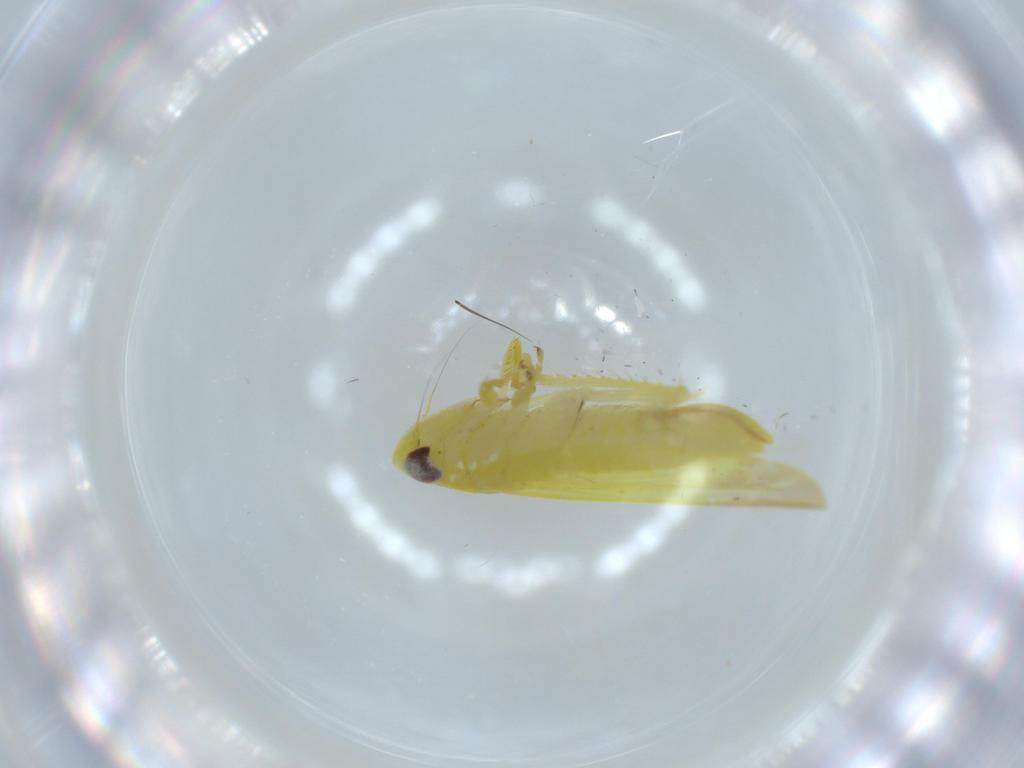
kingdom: Animalia
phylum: Arthropoda
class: Insecta
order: Hemiptera
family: Cicadellidae
